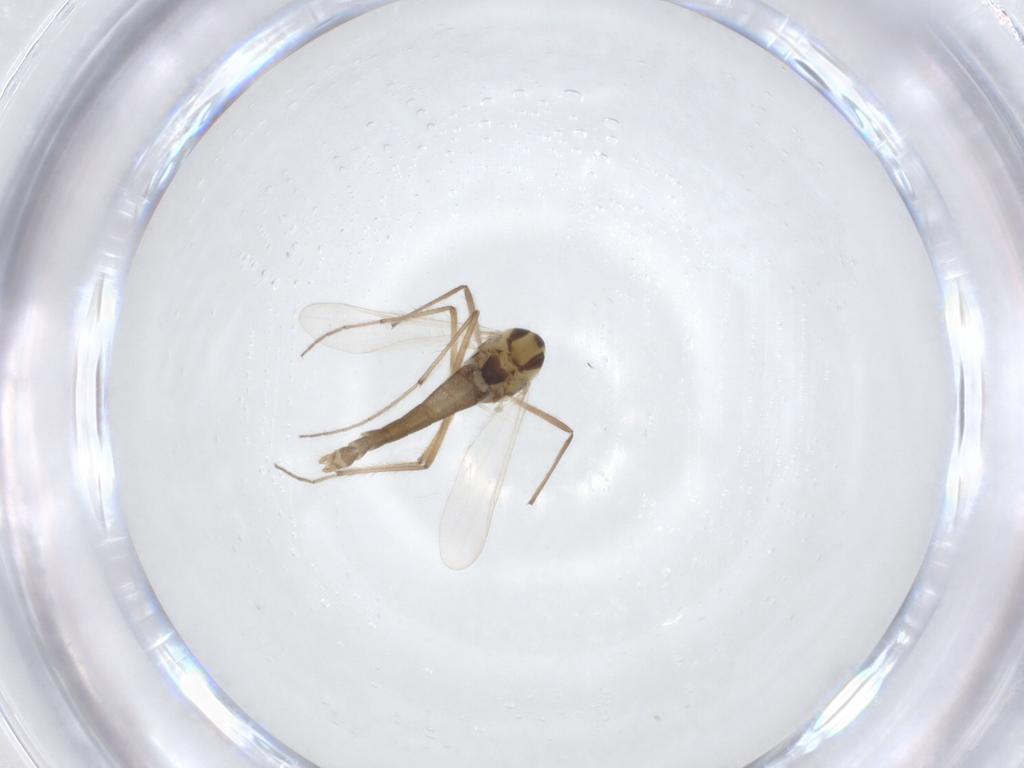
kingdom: Animalia
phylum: Arthropoda
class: Insecta
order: Diptera
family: Chironomidae
